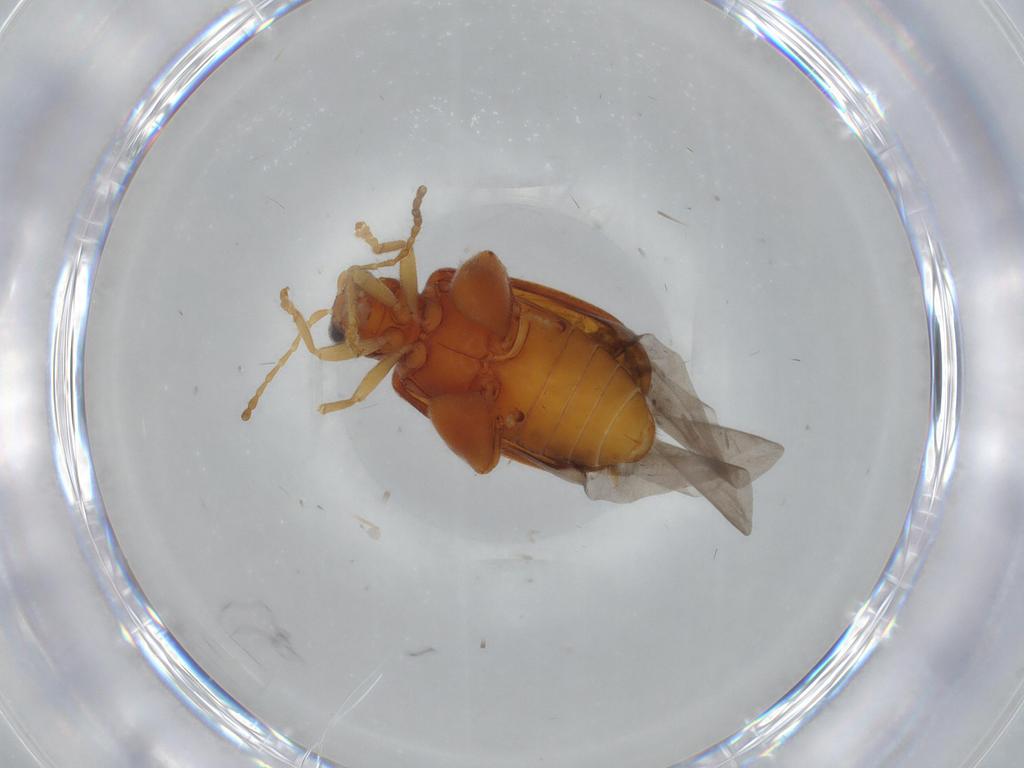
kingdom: Animalia
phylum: Arthropoda
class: Insecta
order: Coleoptera
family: Chrysomelidae
